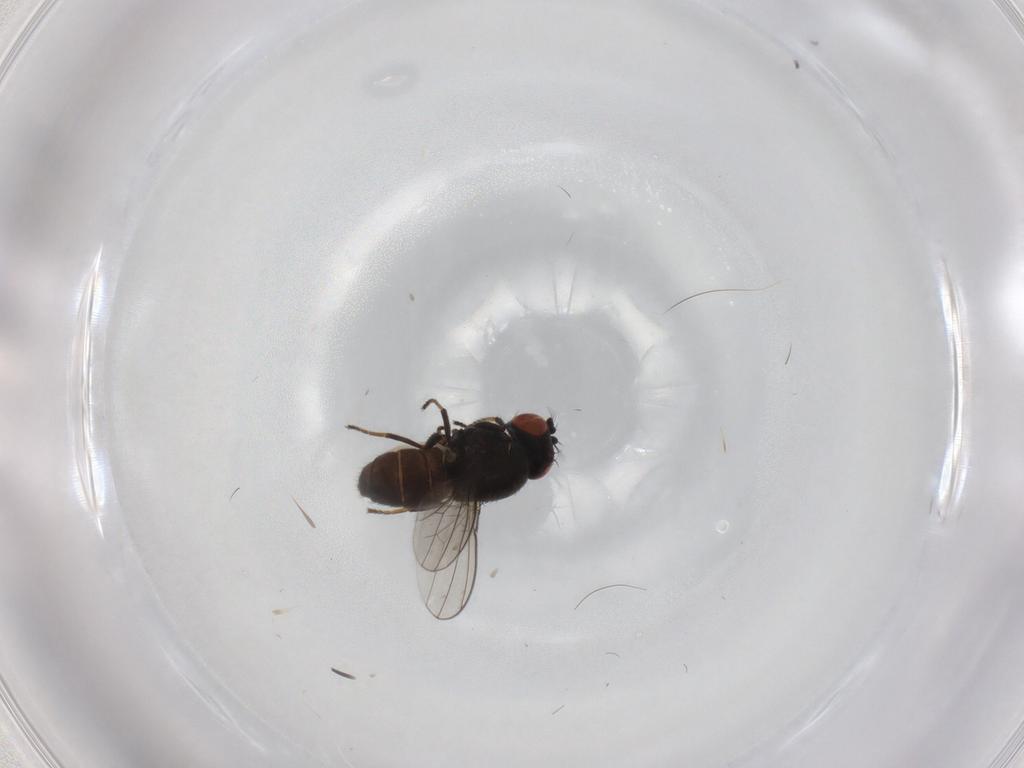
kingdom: Animalia
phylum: Arthropoda
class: Insecta
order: Diptera
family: Ephydridae
